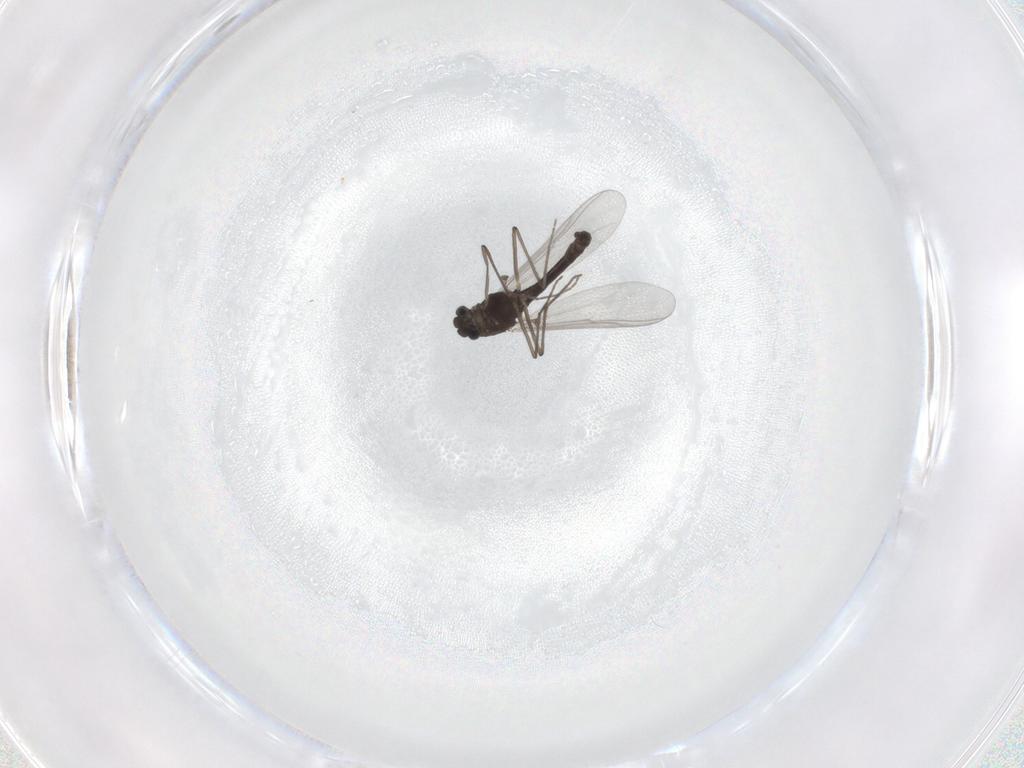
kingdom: Animalia
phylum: Arthropoda
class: Insecta
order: Diptera
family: Chironomidae
